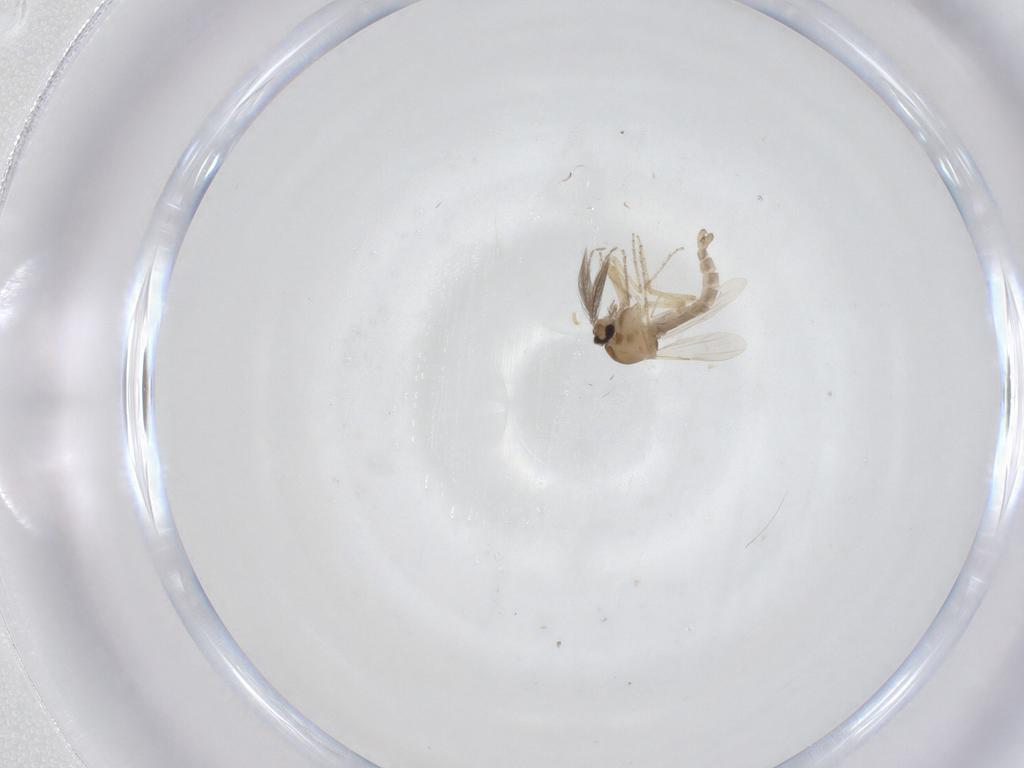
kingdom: Animalia
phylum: Arthropoda
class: Insecta
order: Diptera
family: Ceratopogonidae
